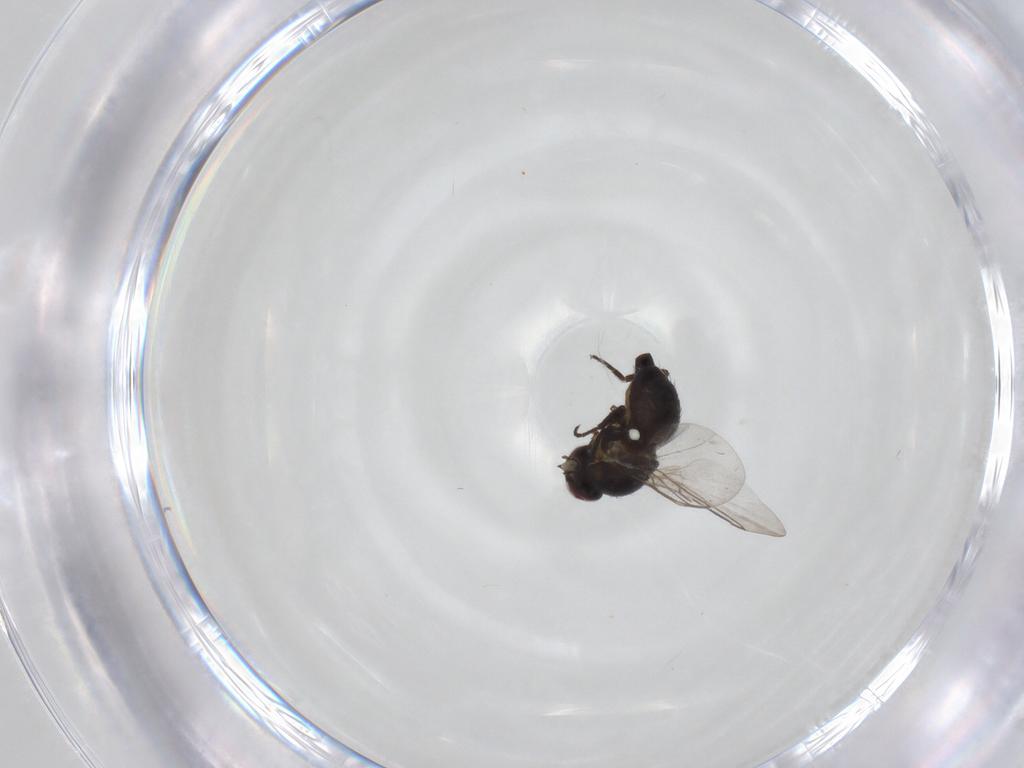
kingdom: Animalia
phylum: Arthropoda
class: Insecta
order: Diptera
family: Agromyzidae
